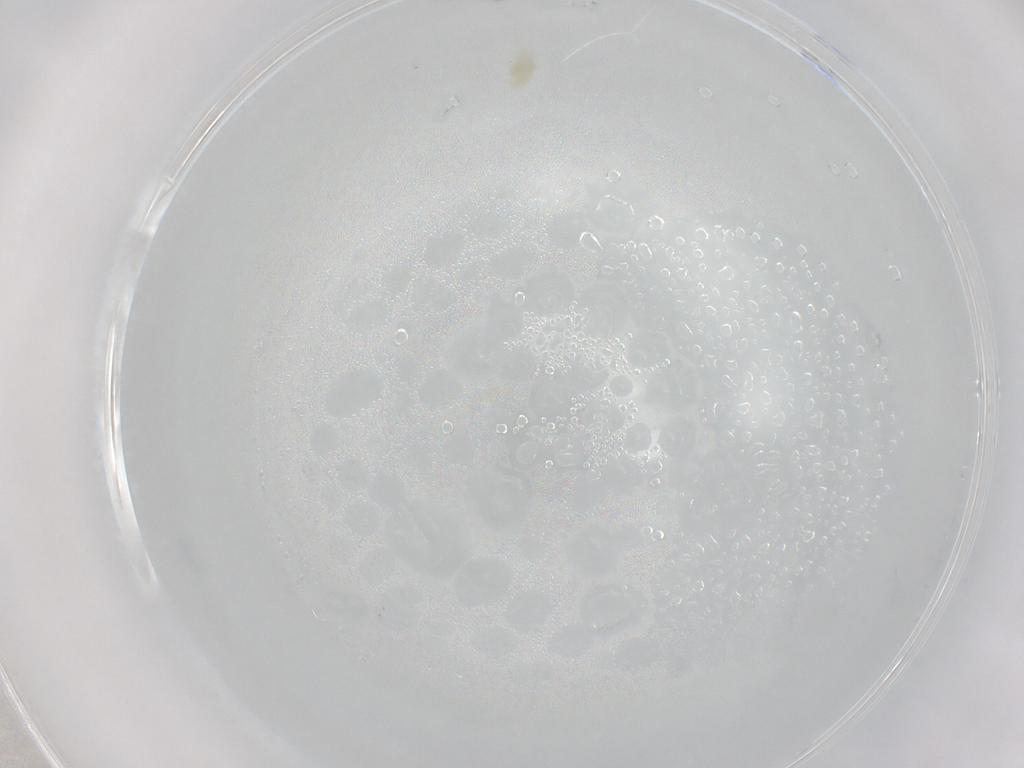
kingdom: Animalia
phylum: Arthropoda
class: Arachnida
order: Trombidiformes
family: Rhagidiidae
